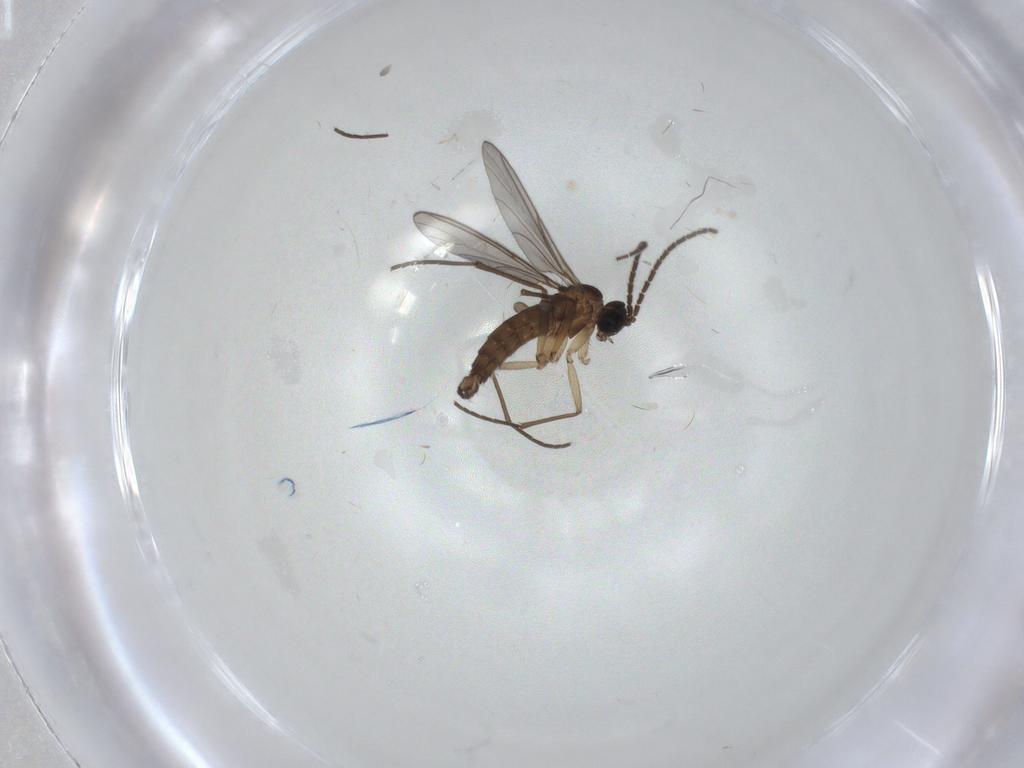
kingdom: Animalia
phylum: Arthropoda
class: Insecta
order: Diptera
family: Sciaridae
